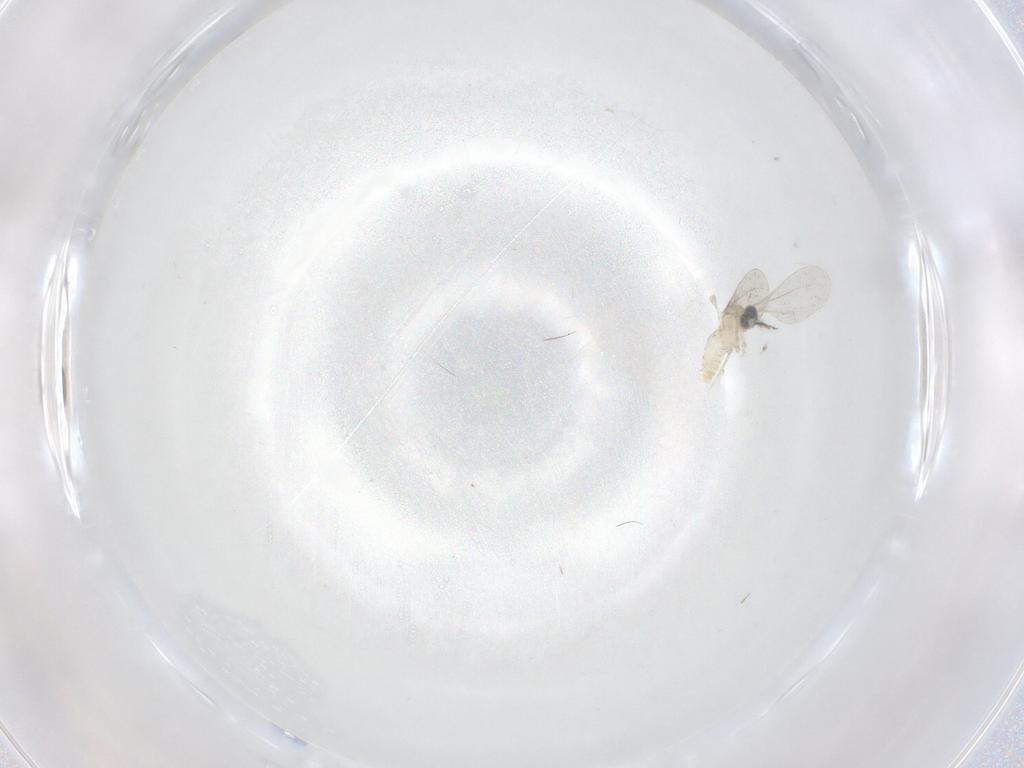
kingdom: Animalia
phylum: Arthropoda
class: Insecta
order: Diptera
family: Cecidomyiidae
